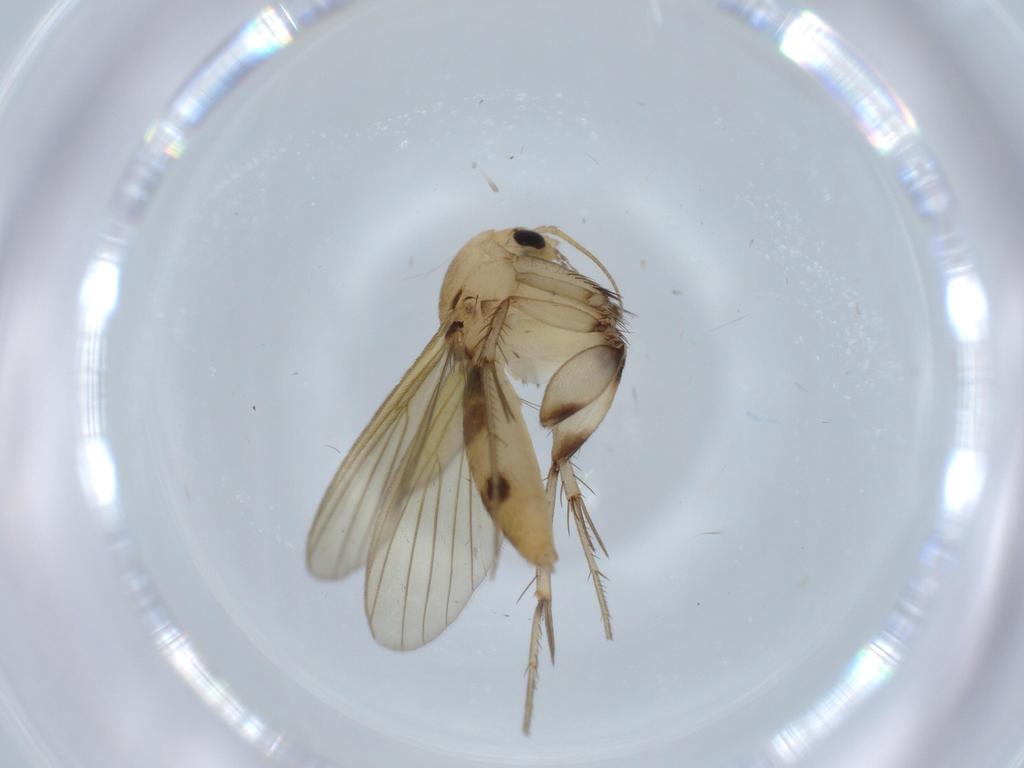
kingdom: Animalia
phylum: Arthropoda
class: Insecta
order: Diptera
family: Mycetophilidae
